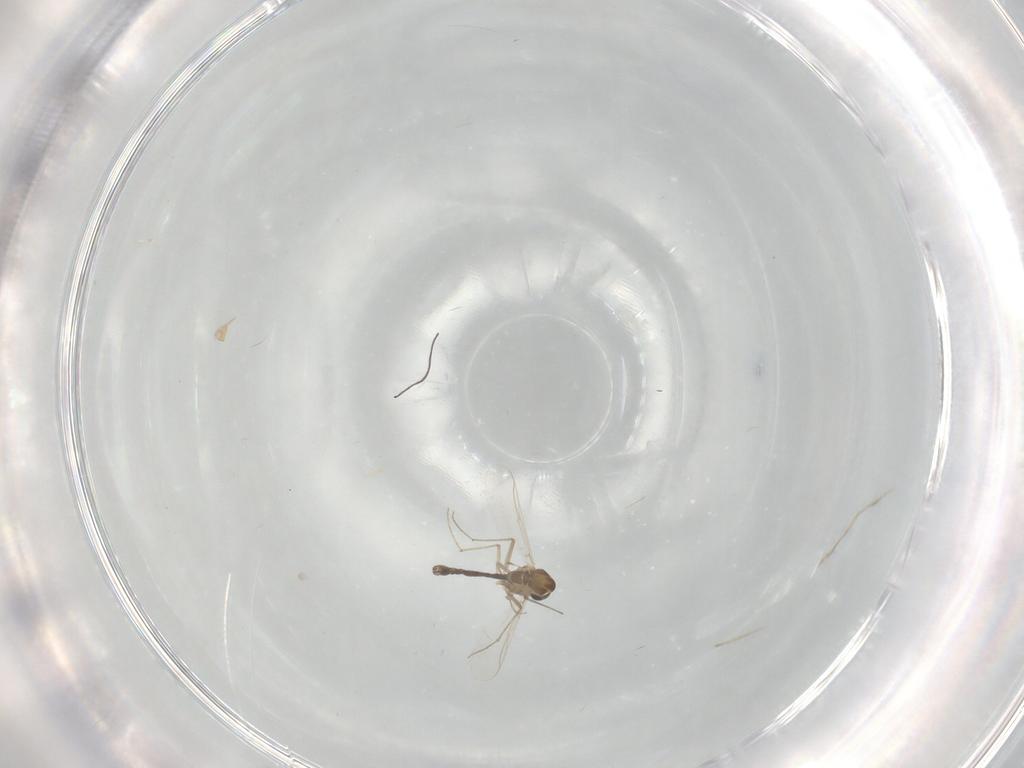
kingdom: Animalia
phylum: Arthropoda
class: Insecta
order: Diptera
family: Chironomidae
